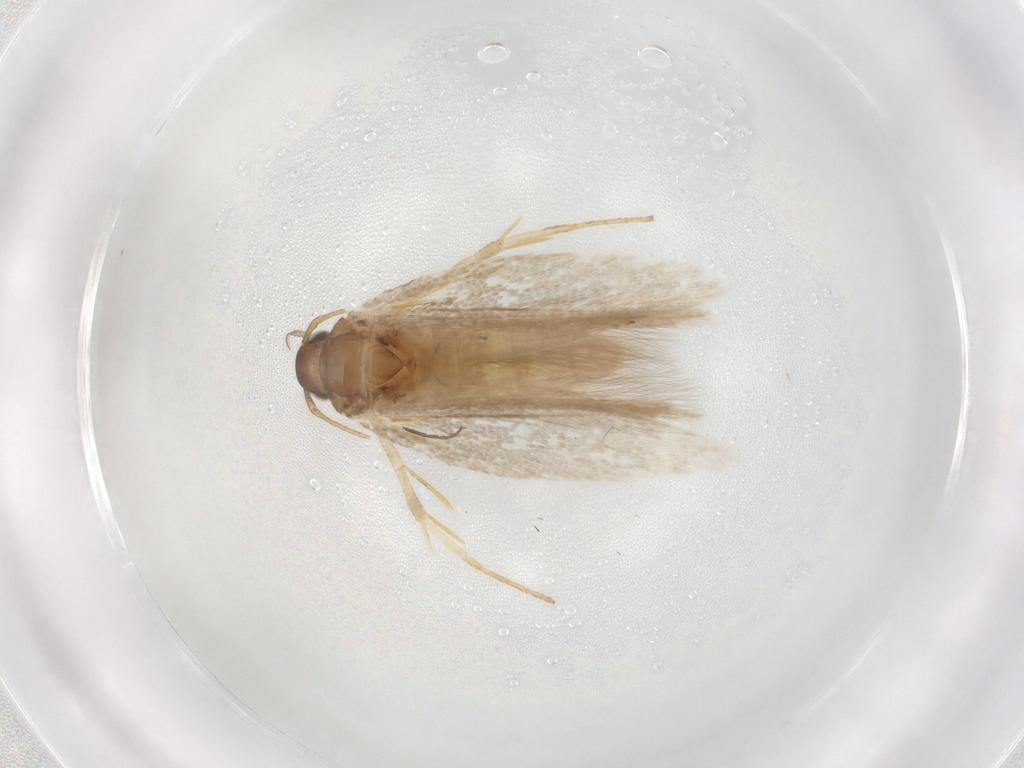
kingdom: Animalia
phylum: Arthropoda
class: Insecta
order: Lepidoptera
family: Gelechiidae
